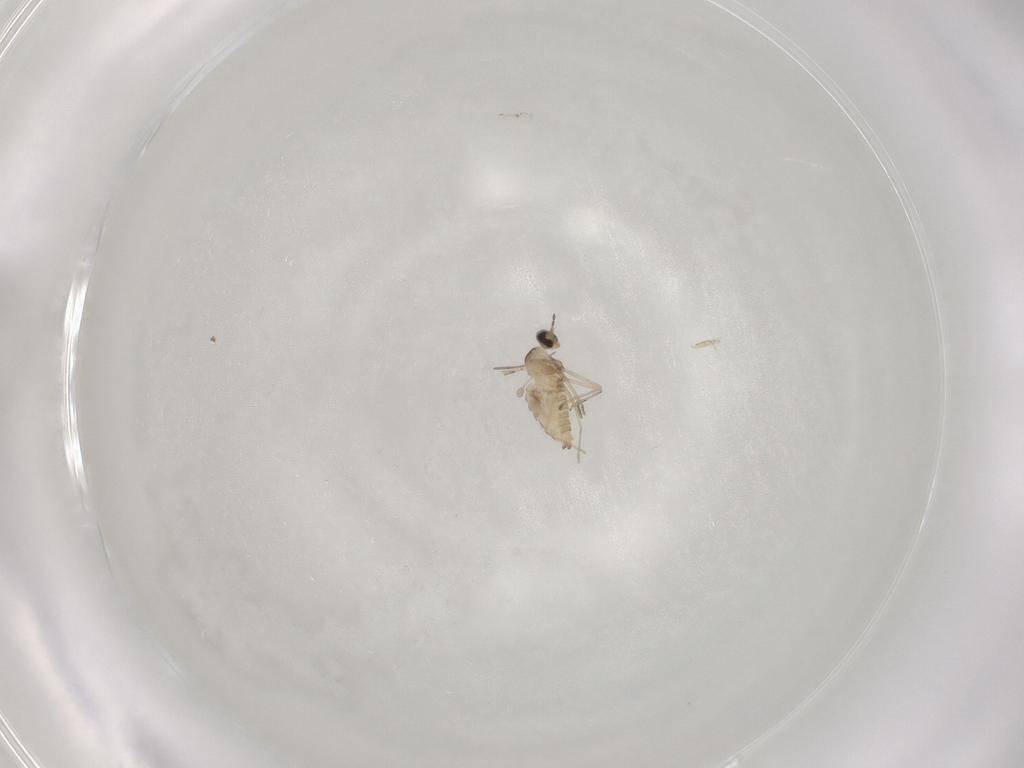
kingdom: Animalia
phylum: Arthropoda
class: Insecta
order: Diptera
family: Cecidomyiidae
